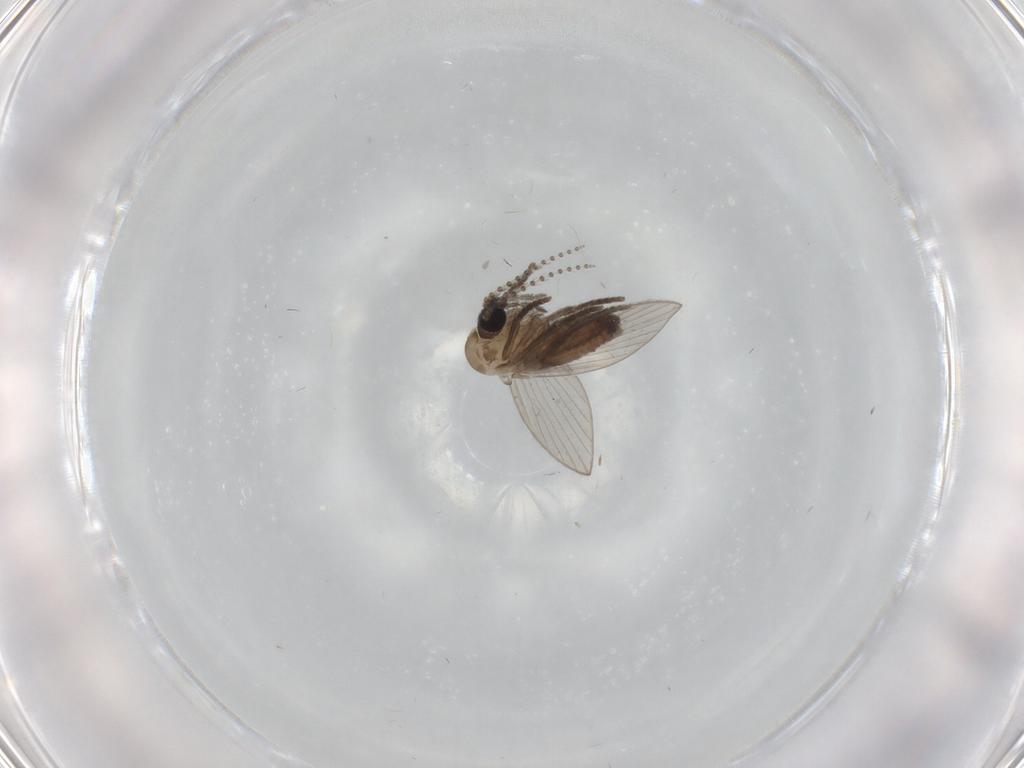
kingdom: Animalia
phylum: Arthropoda
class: Insecta
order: Diptera
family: Psychodidae
